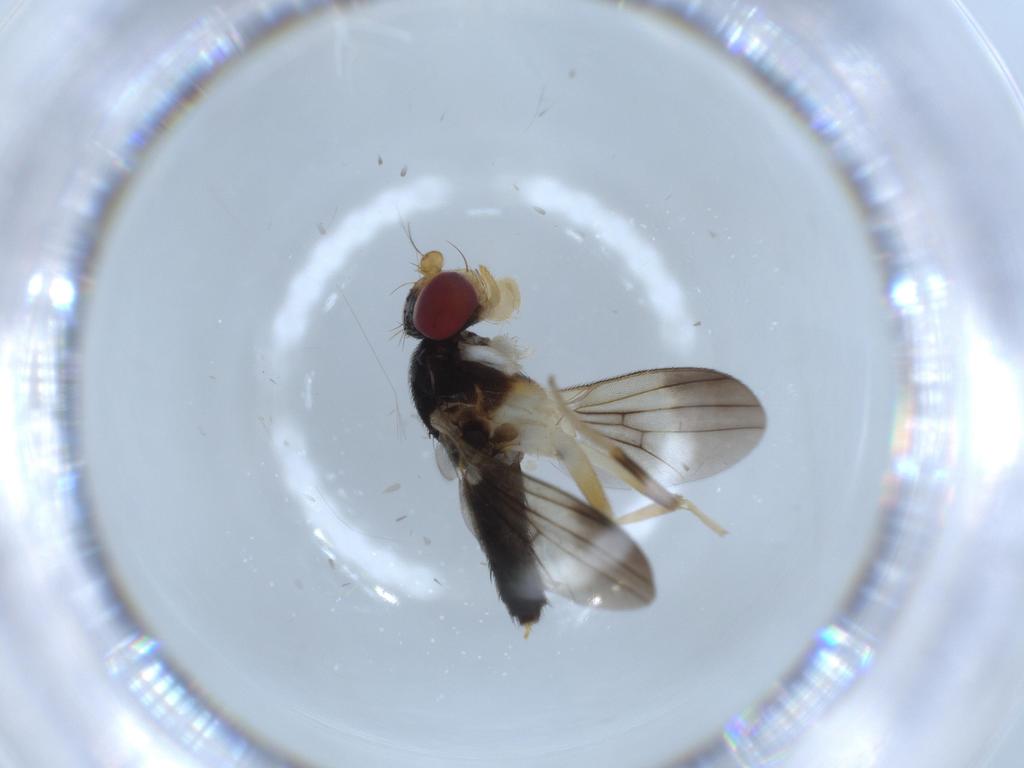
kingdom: Animalia
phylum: Arthropoda
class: Insecta
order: Diptera
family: Clusiidae
